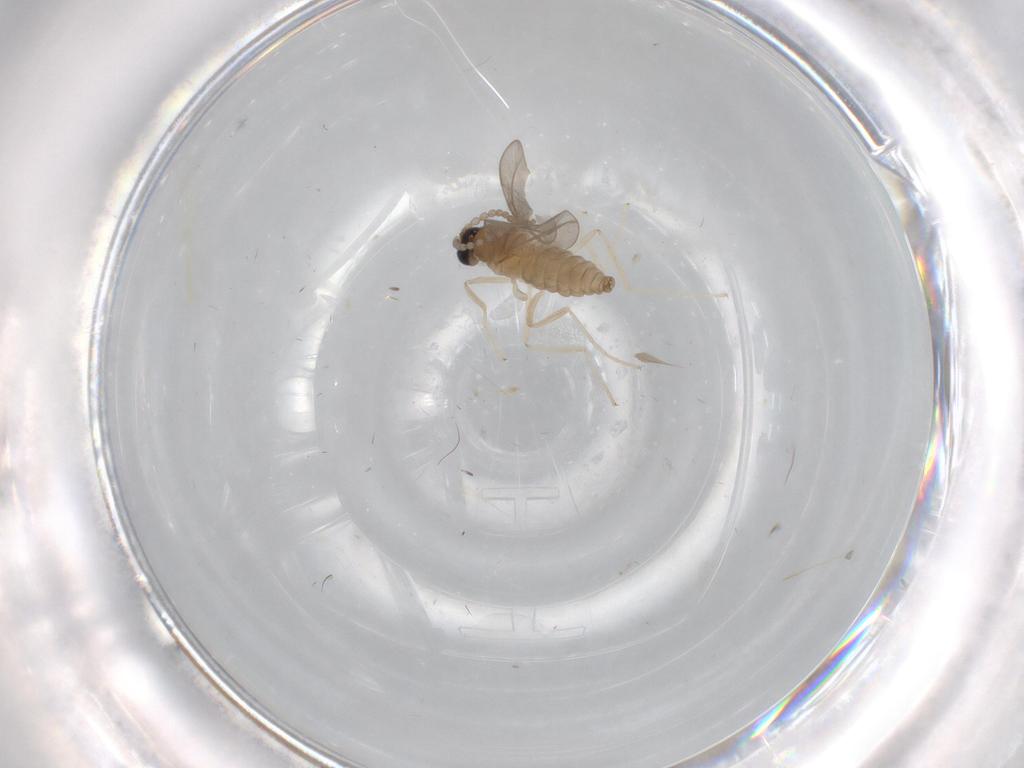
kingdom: Animalia
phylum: Arthropoda
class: Insecta
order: Diptera
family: Cecidomyiidae
